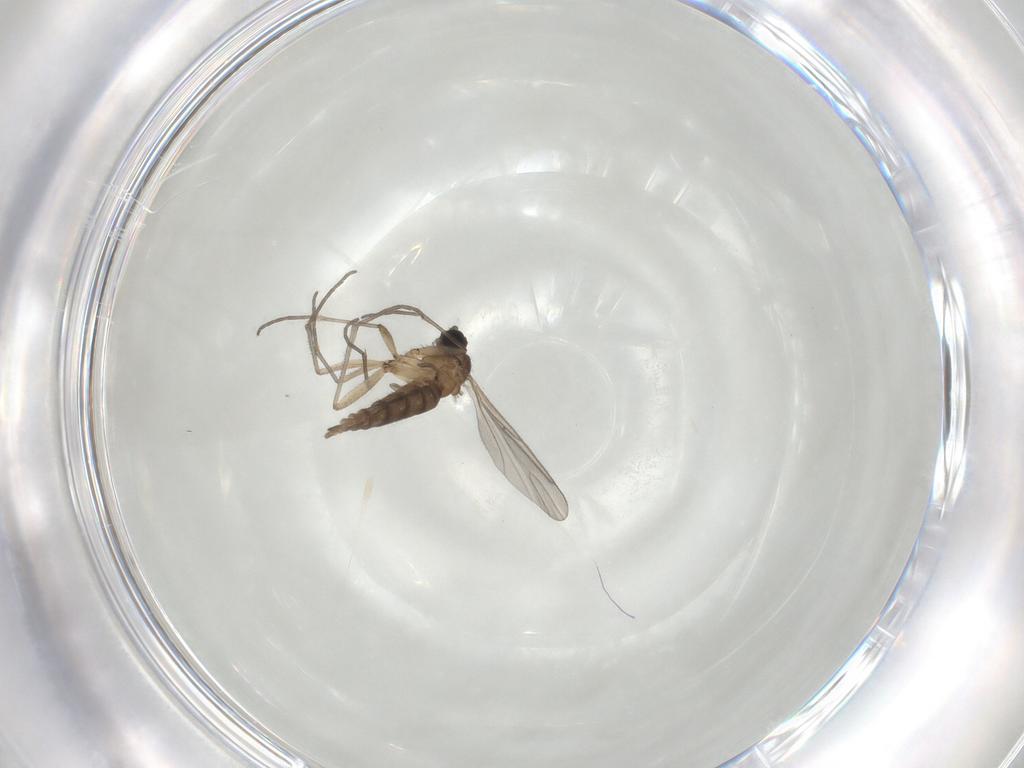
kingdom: Animalia
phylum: Arthropoda
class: Insecta
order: Diptera
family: Sciaridae
